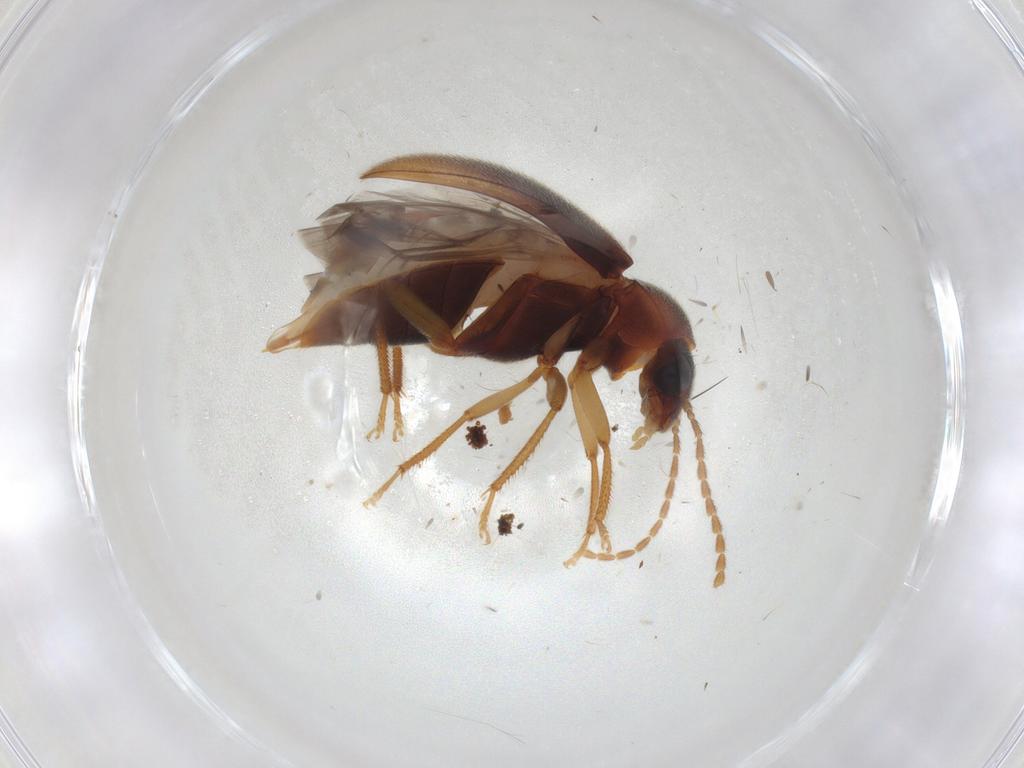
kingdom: Animalia
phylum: Arthropoda
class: Insecta
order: Coleoptera
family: Ptilodactylidae
